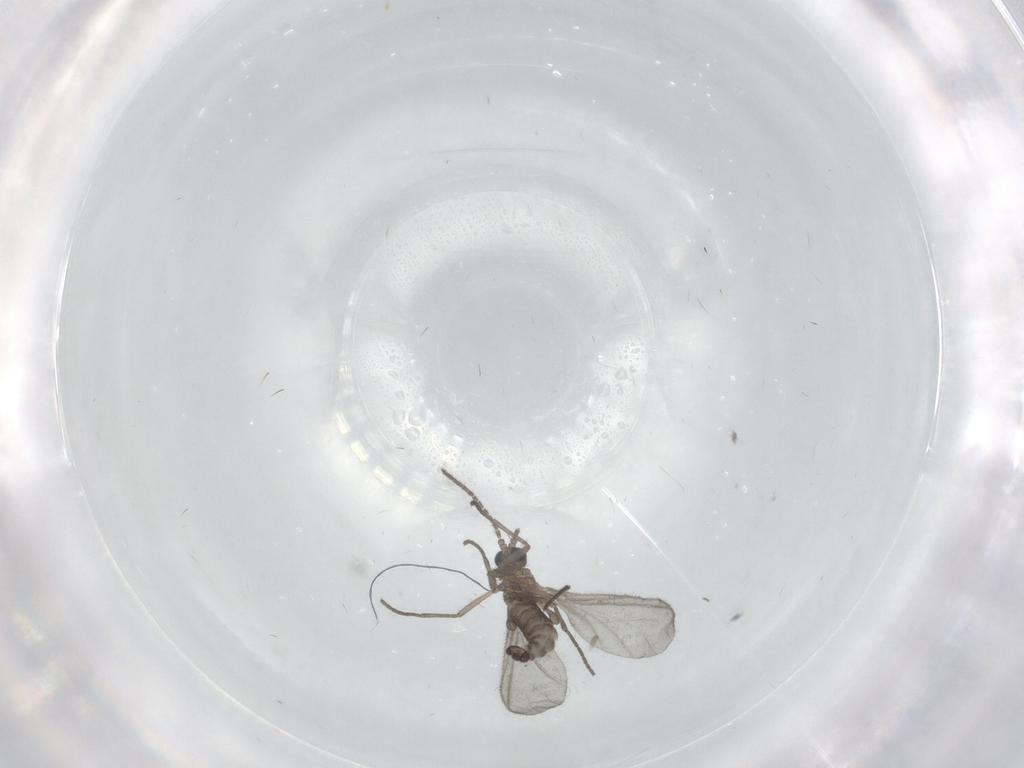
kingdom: Animalia
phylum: Arthropoda
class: Insecta
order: Diptera
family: Sciaridae
